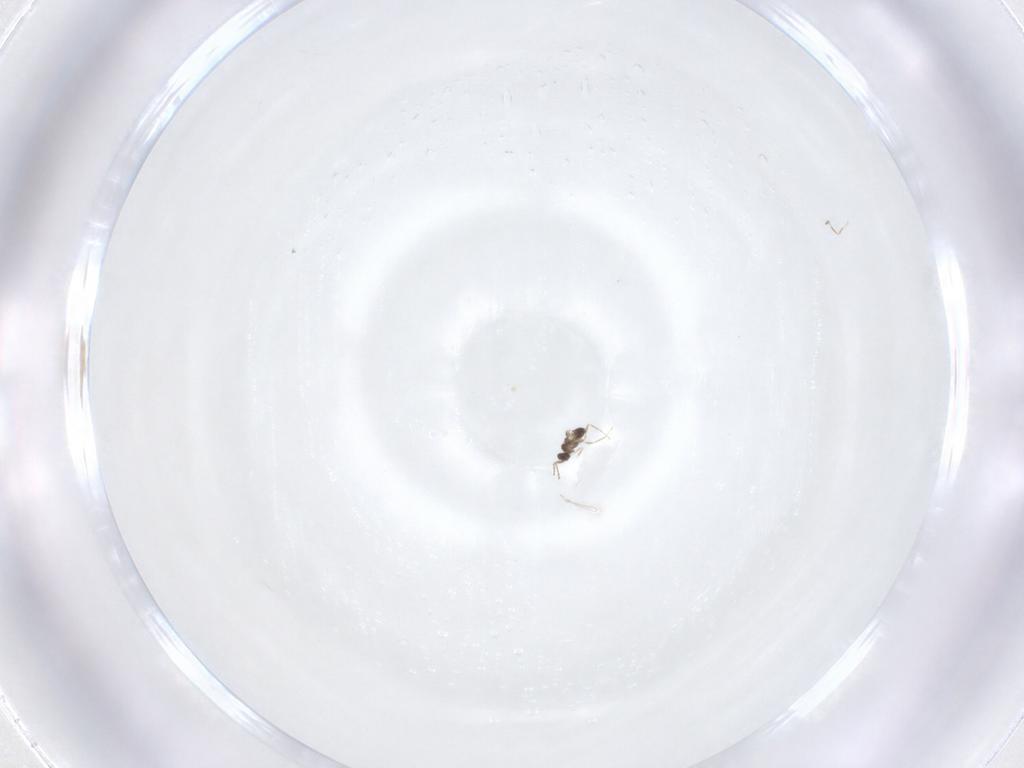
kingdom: Animalia
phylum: Arthropoda
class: Insecta
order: Hymenoptera
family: Mymaridae
